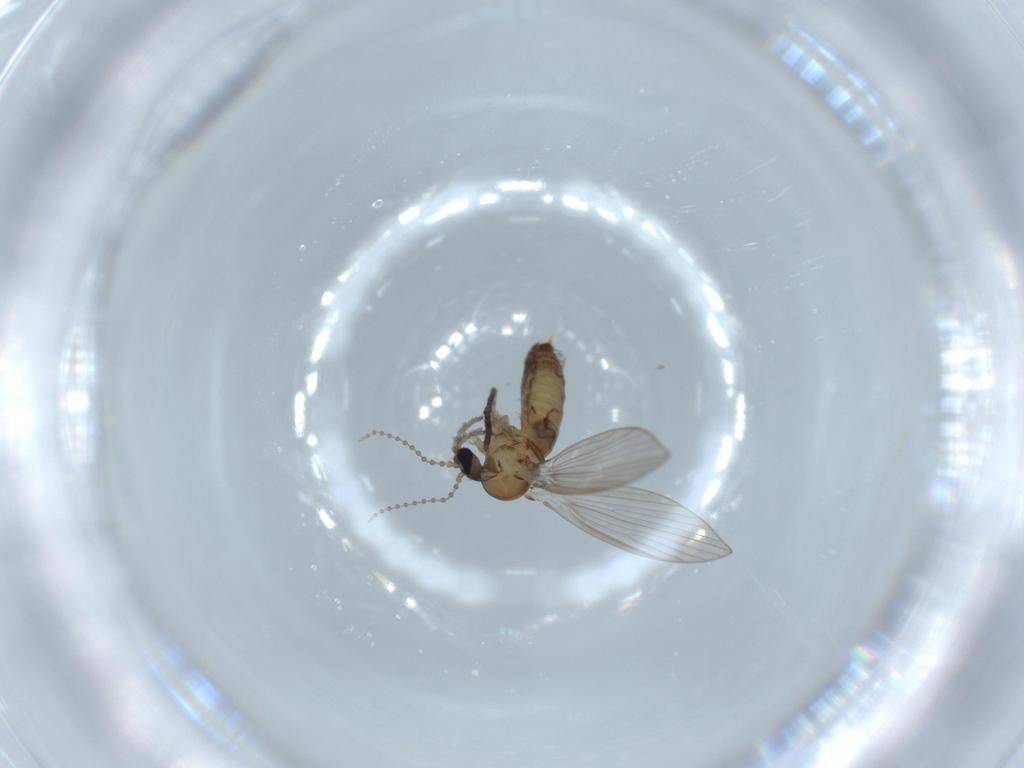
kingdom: Animalia
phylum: Arthropoda
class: Insecta
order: Diptera
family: Psychodidae
